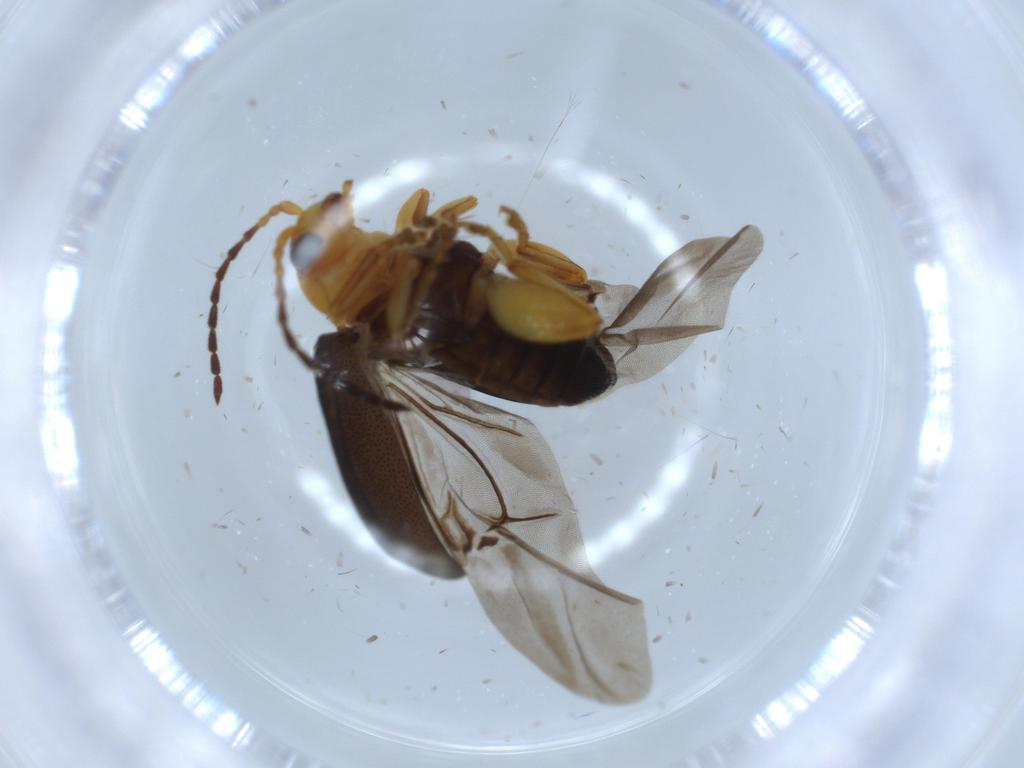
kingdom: Animalia
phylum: Arthropoda
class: Insecta
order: Coleoptera
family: Chrysomelidae
